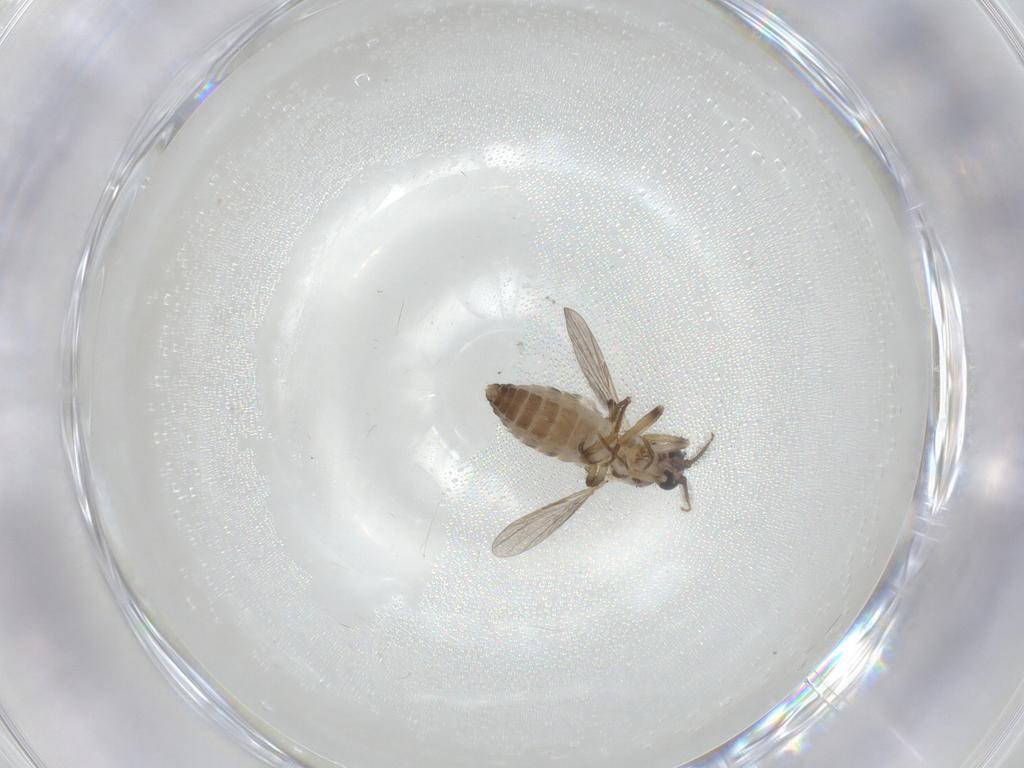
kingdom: Animalia
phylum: Arthropoda
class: Insecta
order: Diptera
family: Ceratopogonidae
